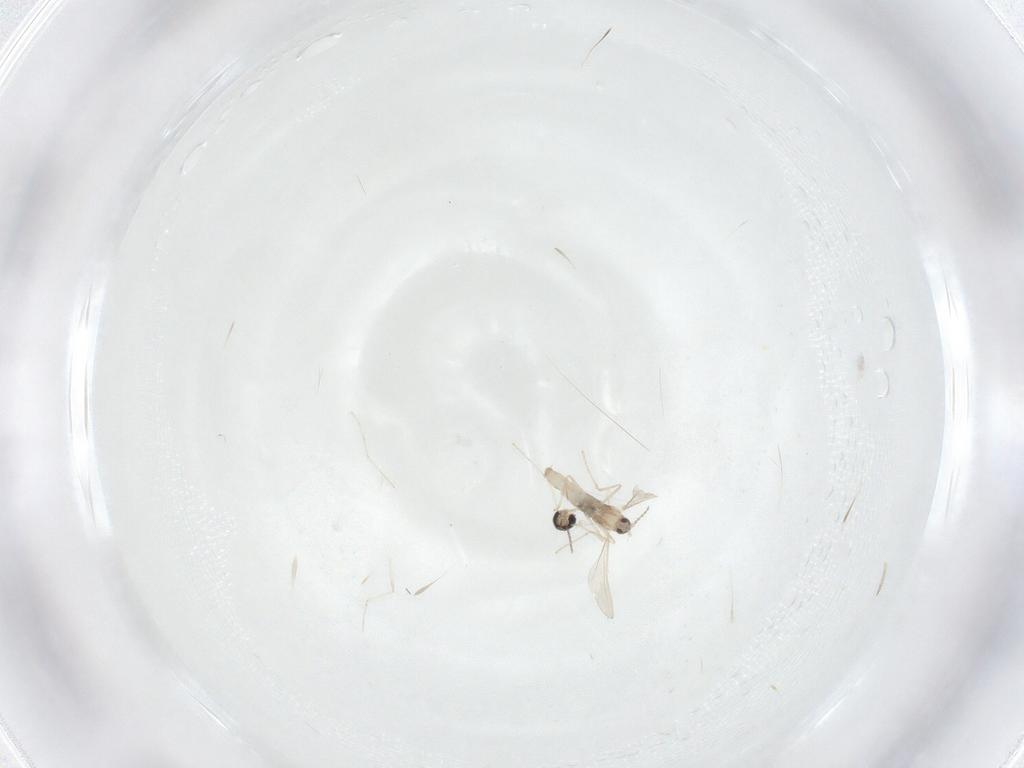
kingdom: Animalia
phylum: Arthropoda
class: Insecta
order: Diptera
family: Cecidomyiidae
